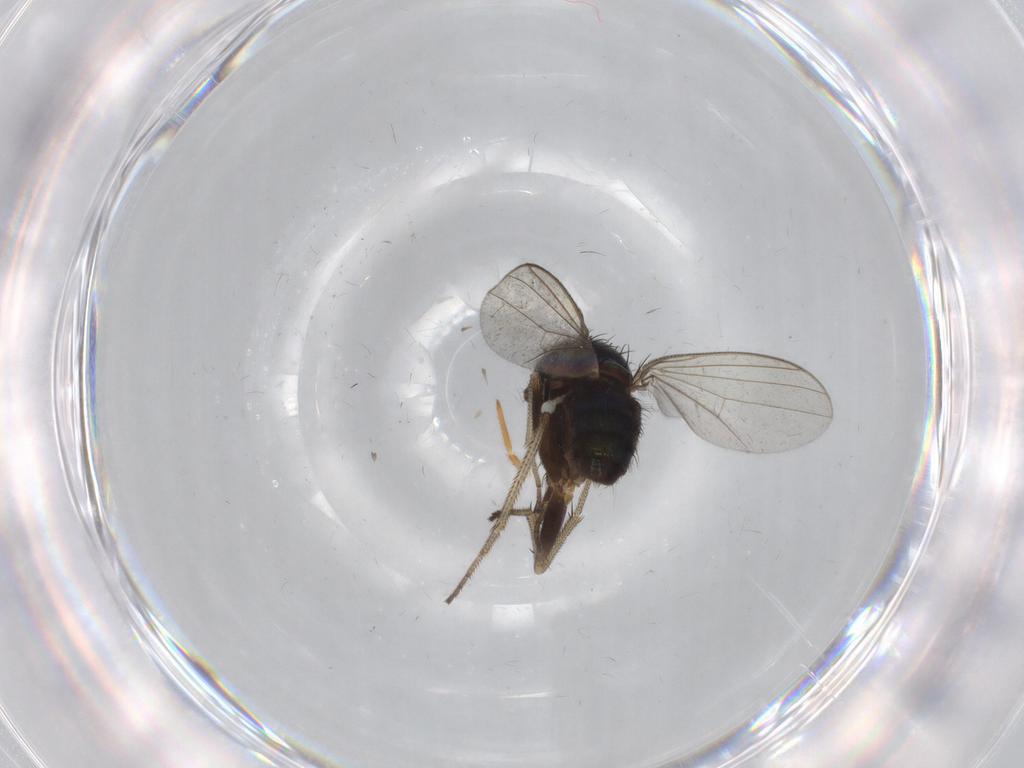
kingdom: Animalia
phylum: Arthropoda
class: Insecta
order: Diptera
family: Dolichopodidae
